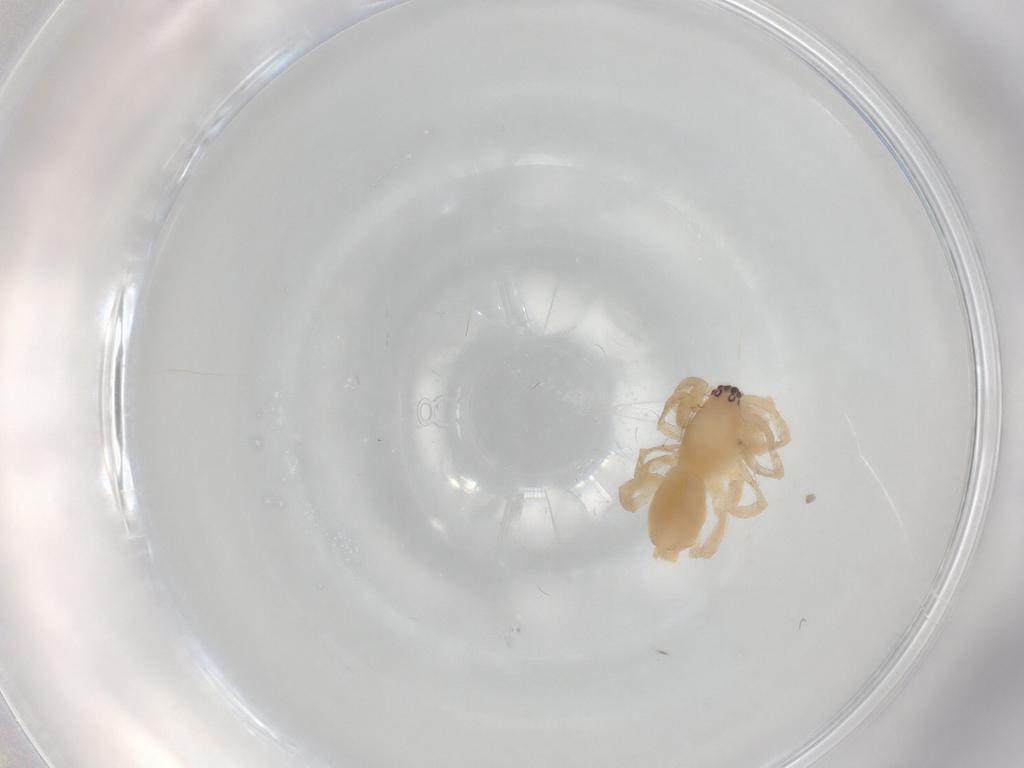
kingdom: Animalia
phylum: Arthropoda
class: Arachnida
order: Araneae
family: Clubionidae
